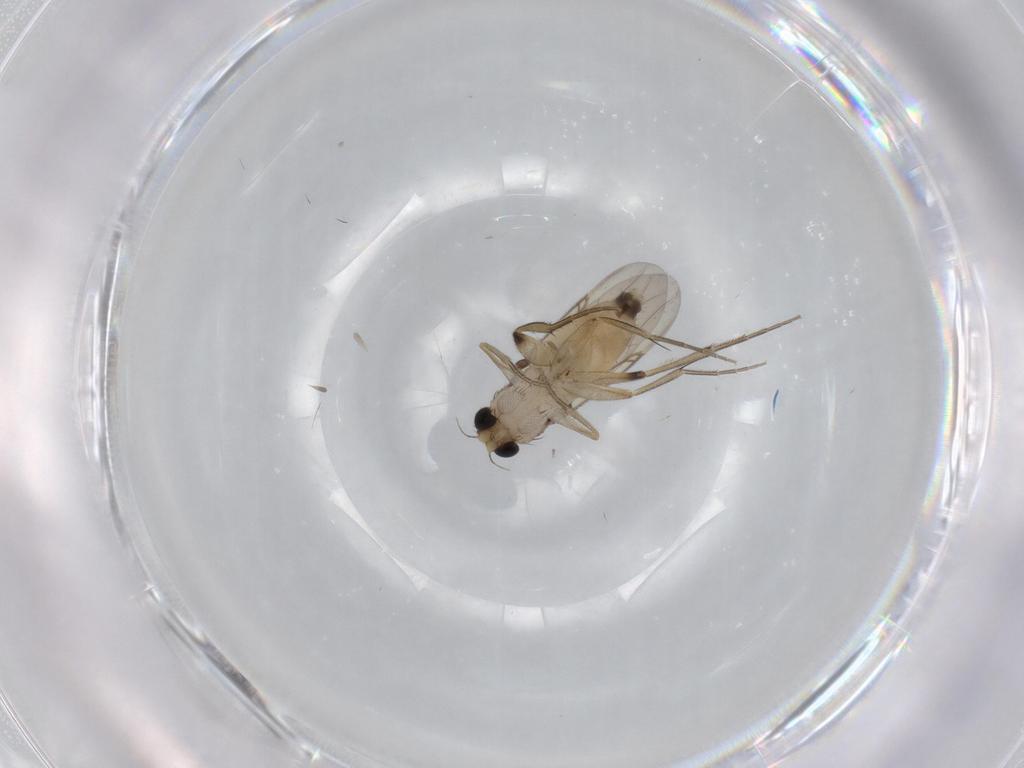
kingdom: Animalia
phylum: Arthropoda
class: Insecta
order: Diptera
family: Phoridae
